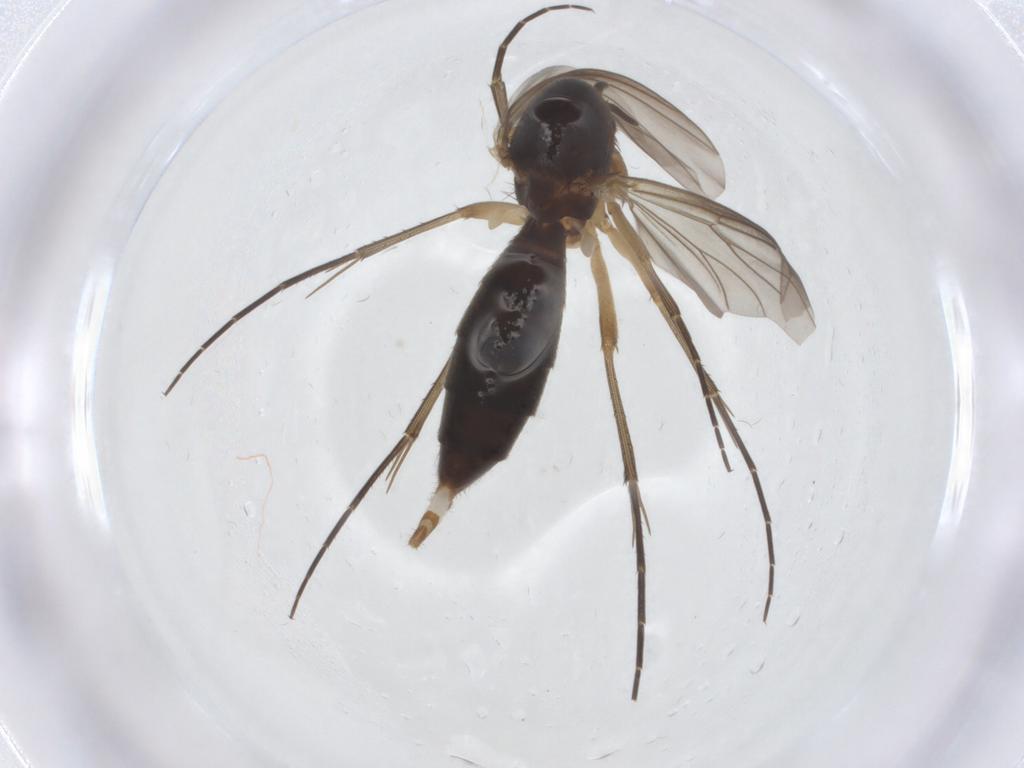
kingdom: Animalia
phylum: Arthropoda
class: Insecta
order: Diptera
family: Mycetophilidae
